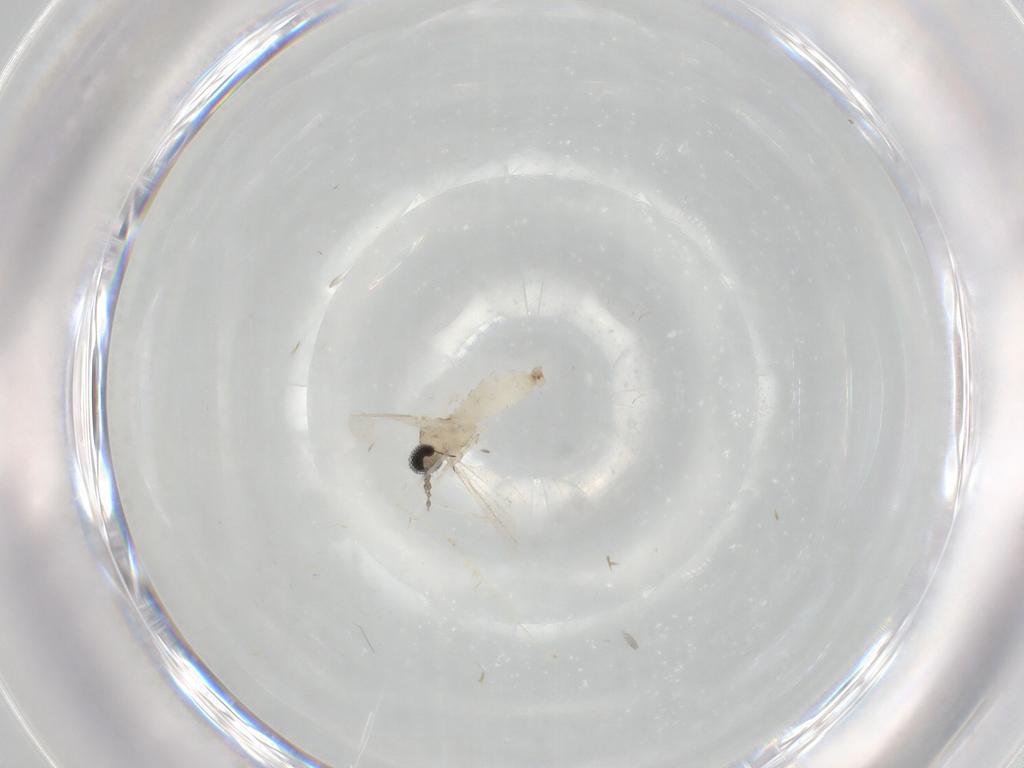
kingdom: Animalia
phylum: Arthropoda
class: Insecta
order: Diptera
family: Cecidomyiidae
